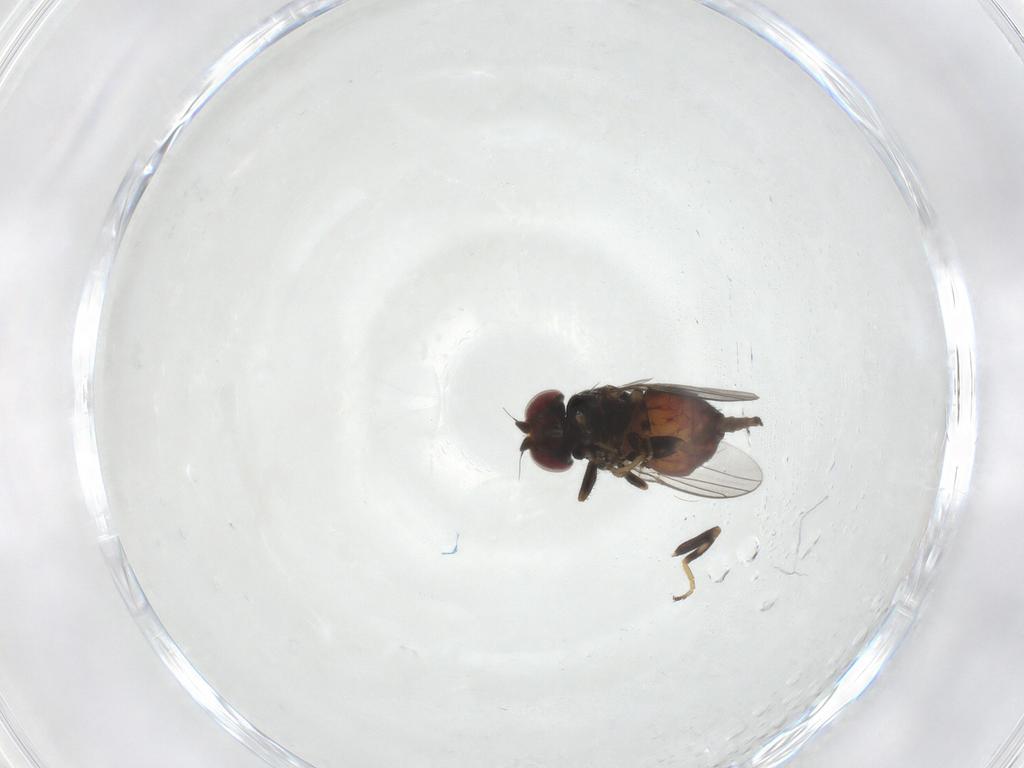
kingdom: Animalia
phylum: Arthropoda
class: Insecta
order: Diptera
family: Chloropidae
